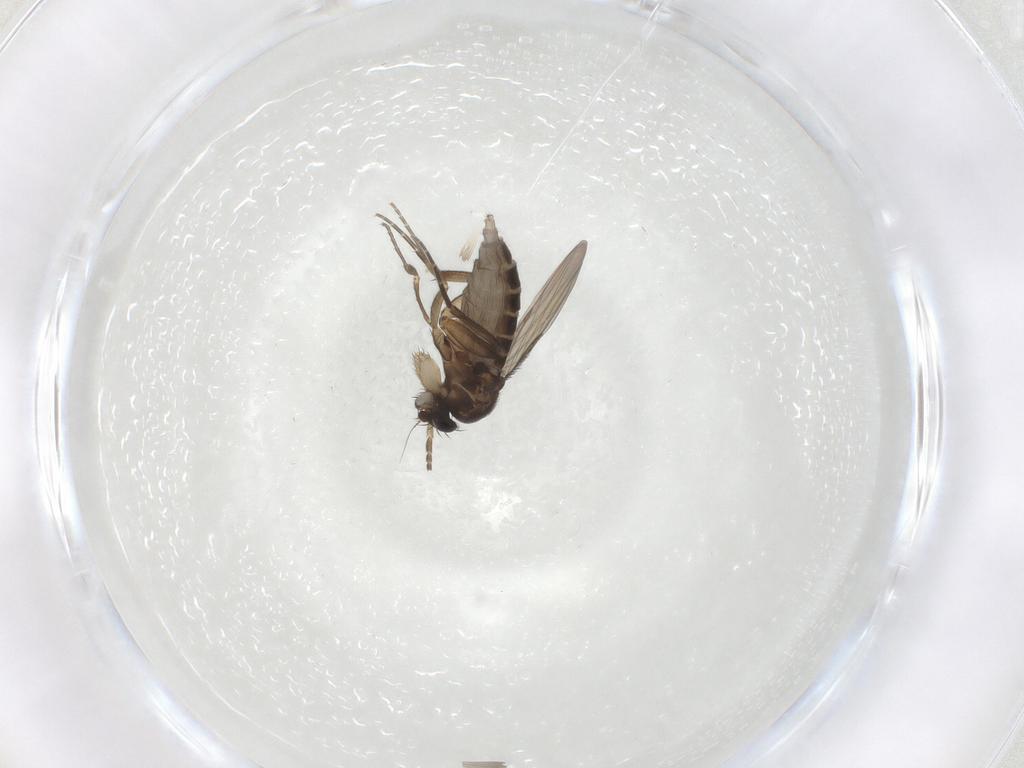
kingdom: Animalia
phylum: Arthropoda
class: Insecta
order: Diptera
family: Phoridae
